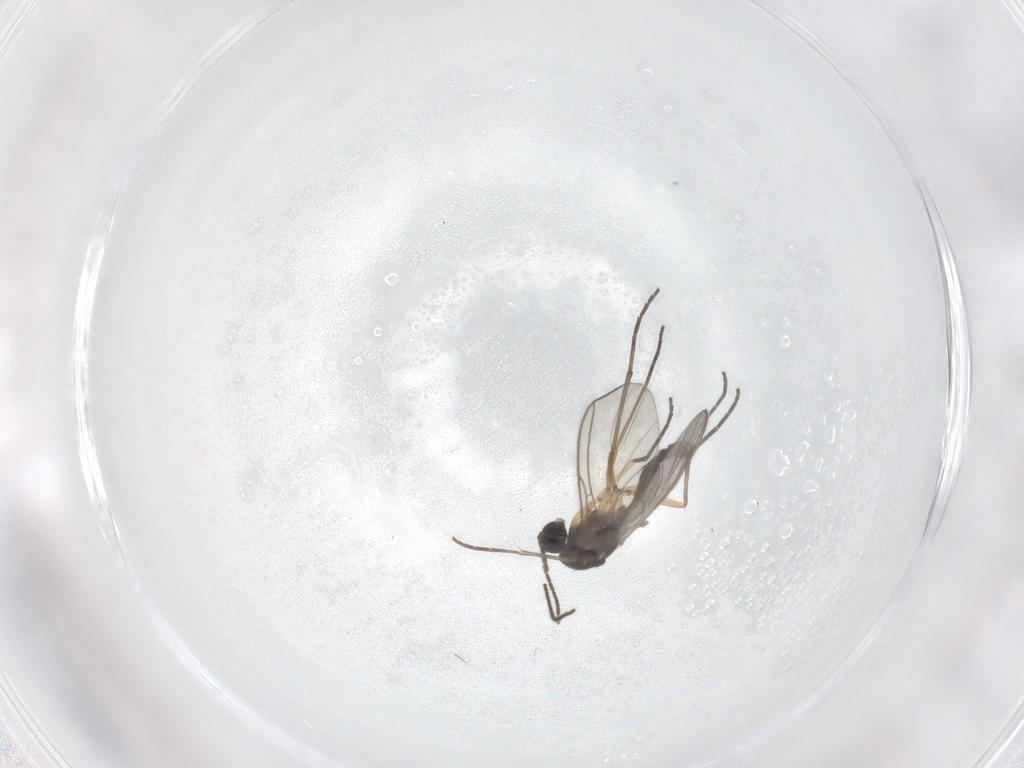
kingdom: Animalia
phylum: Arthropoda
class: Insecta
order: Diptera
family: Sciaridae
